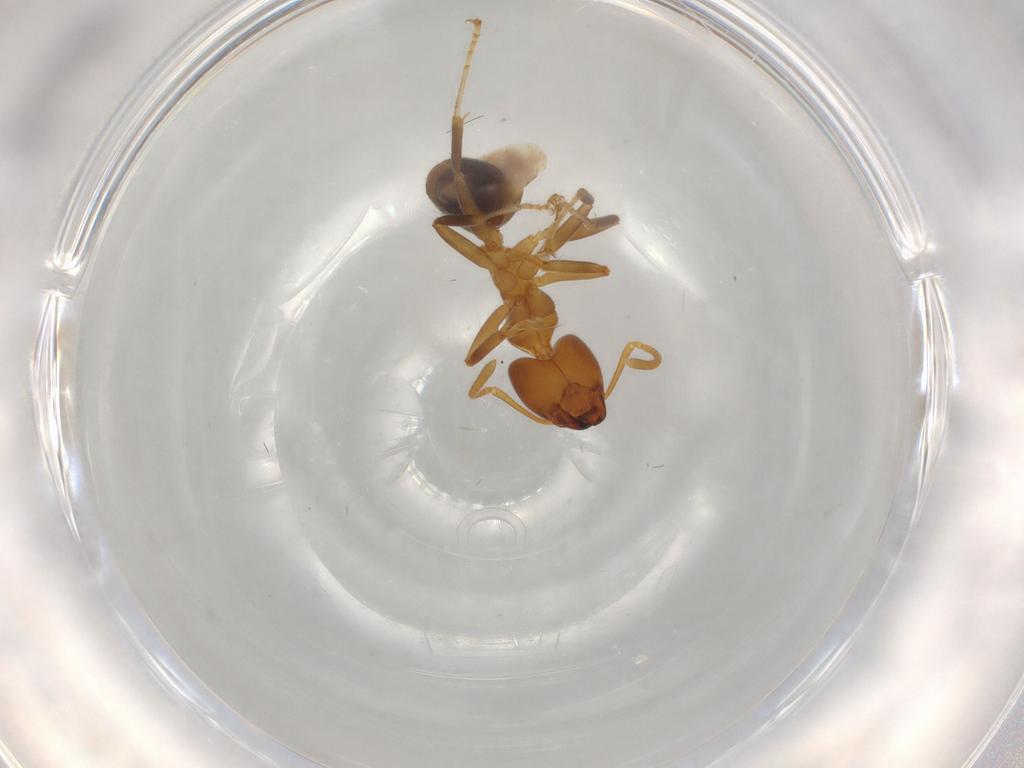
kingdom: Animalia
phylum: Arthropoda
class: Insecta
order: Hymenoptera
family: Formicidae
